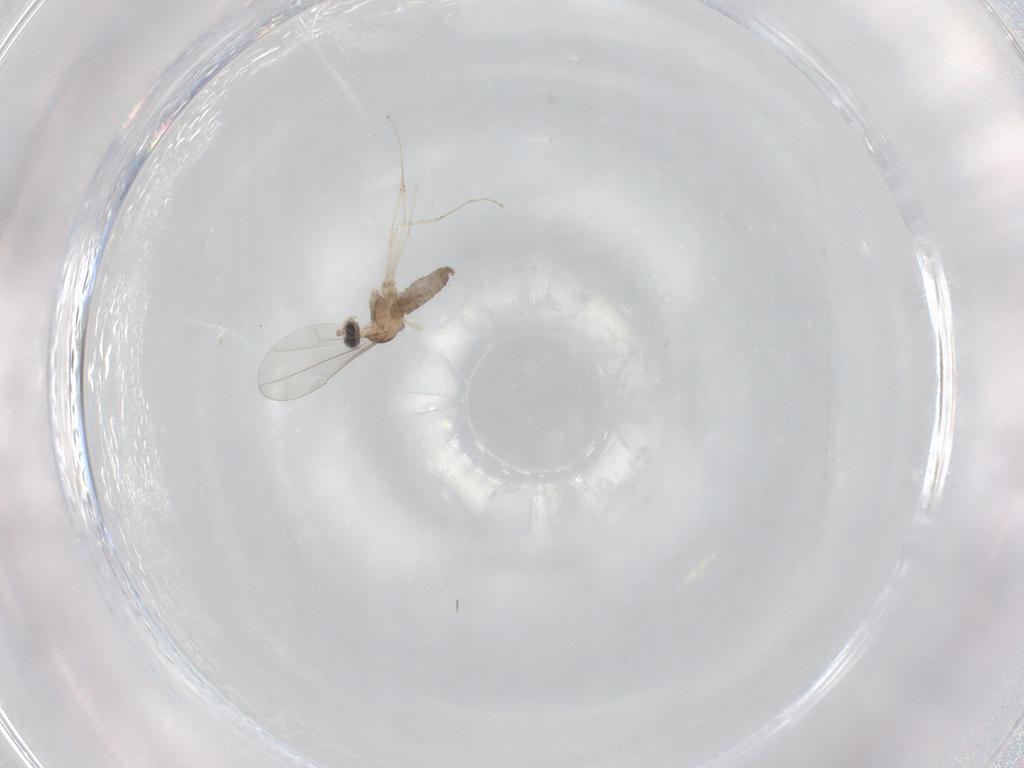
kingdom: Animalia
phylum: Arthropoda
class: Insecta
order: Diptera
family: Cecidomyiidae
